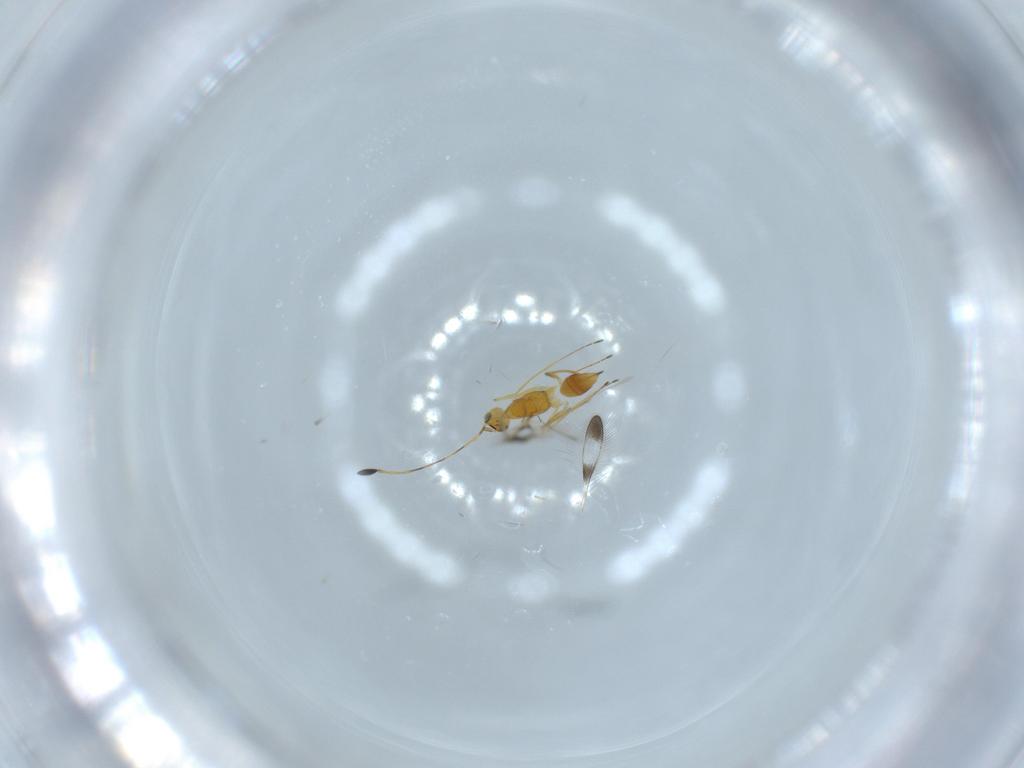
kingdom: Animalia
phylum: Arthropoda
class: Insecta
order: Hymenoptera
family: Mymaridae
